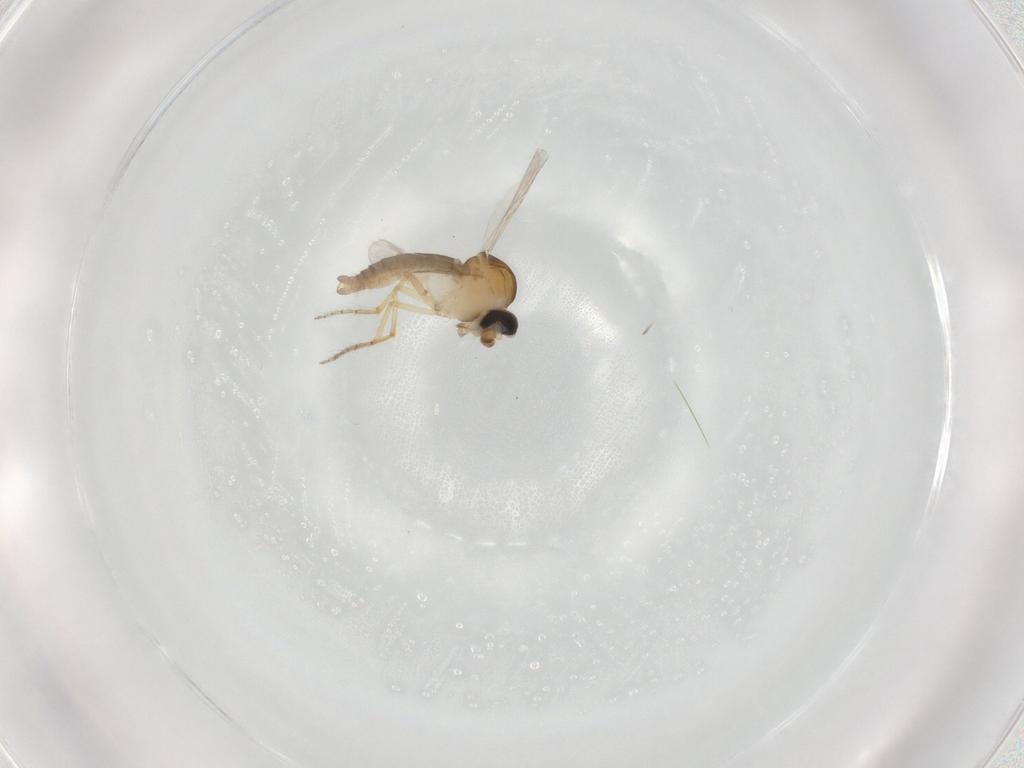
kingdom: Animalia
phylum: Arthropoda
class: Insecta
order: Diptera
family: Ceratopogonidae
